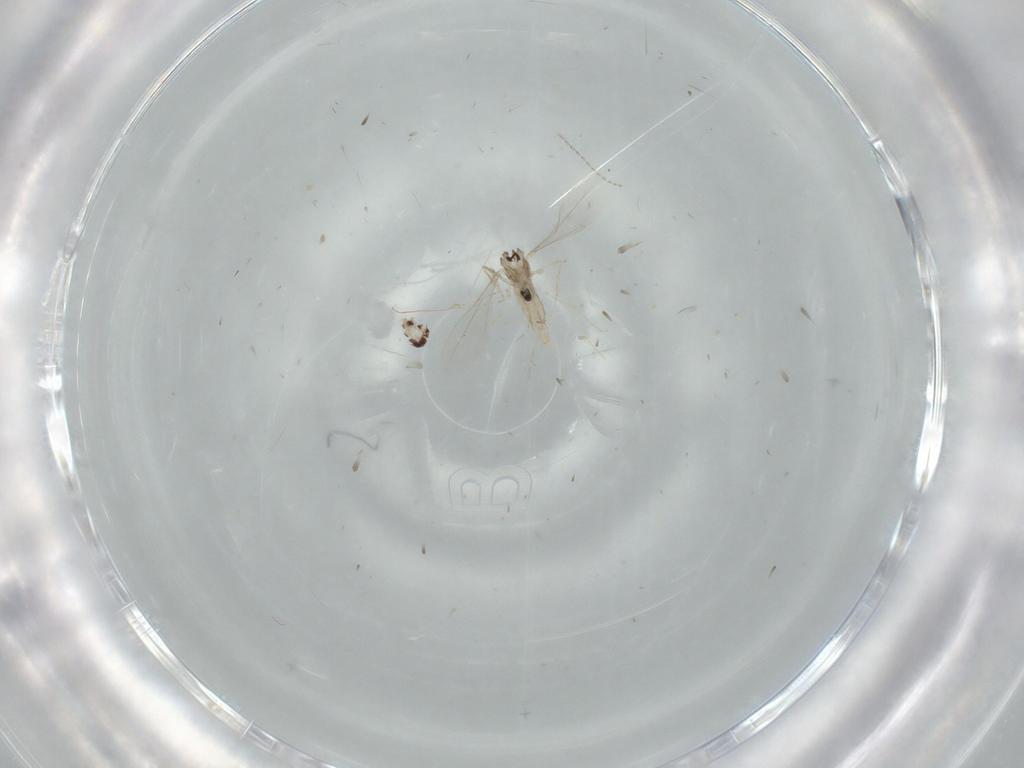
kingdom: Animalia
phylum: Arthropoda
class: Insecta
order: Diptera
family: Cecidomyiidae
